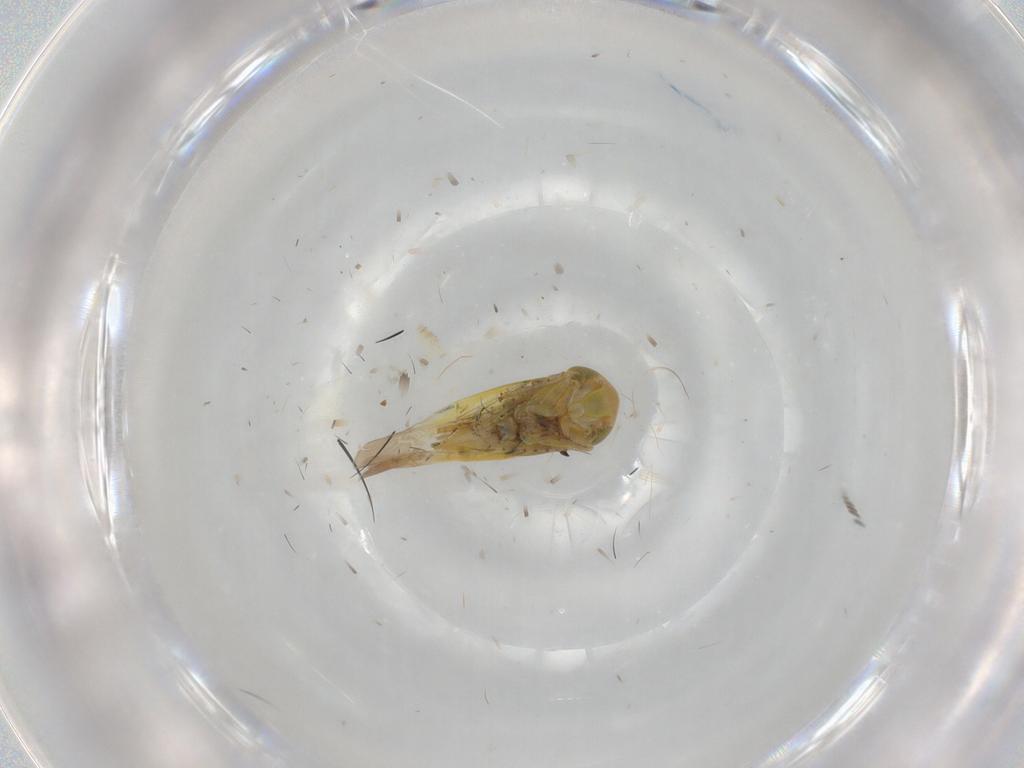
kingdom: Animalia
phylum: Arthropoda
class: Insecta
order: Hemiptera
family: Cicadellidae
